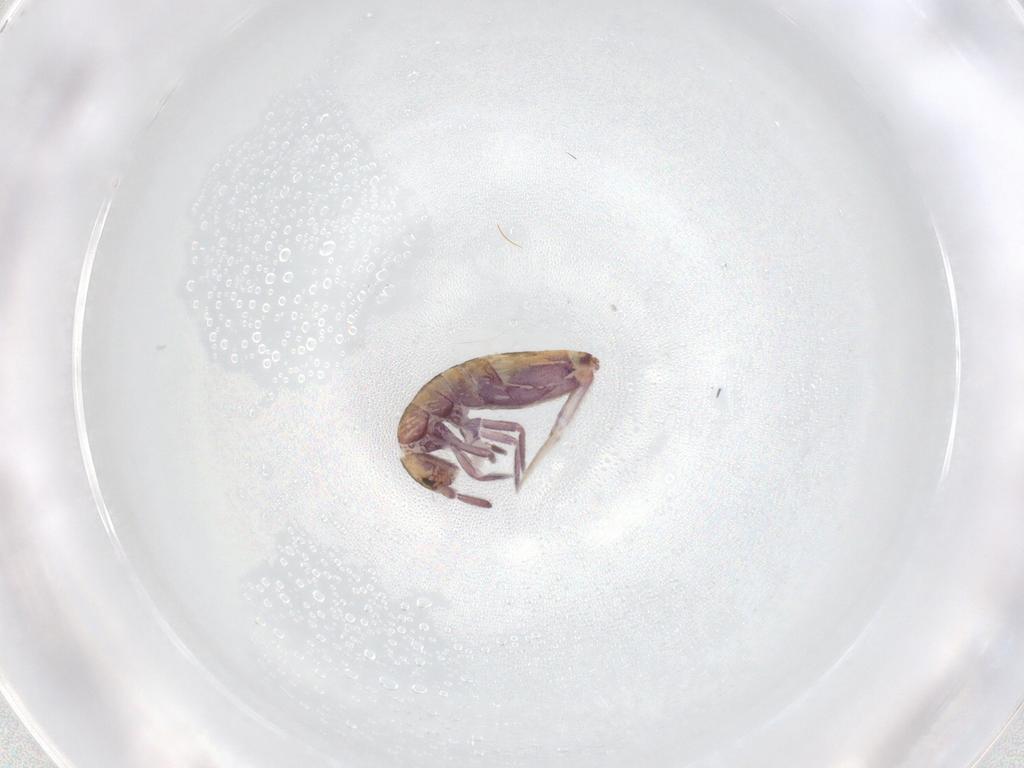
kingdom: Animalia
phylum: Arthropoda
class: Collembola
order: Entomobryomorpha
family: Entomobryidae
